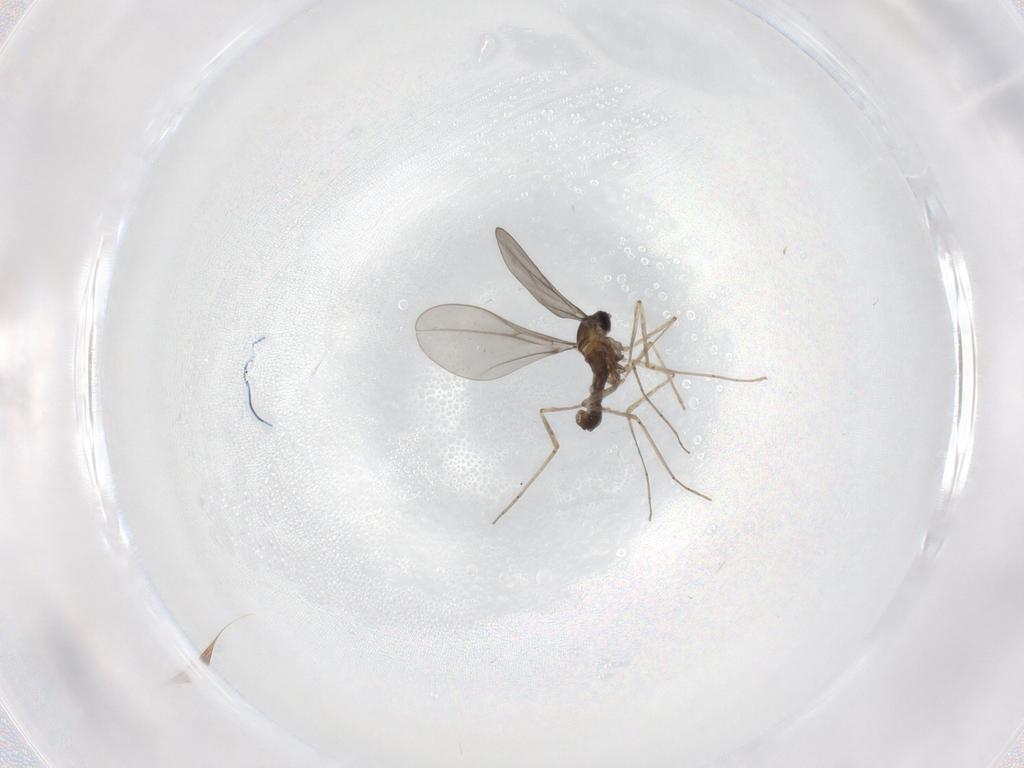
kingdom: Animalia
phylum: Arthropoda
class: Insecta
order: Diptera
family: Cecidomyiidae
